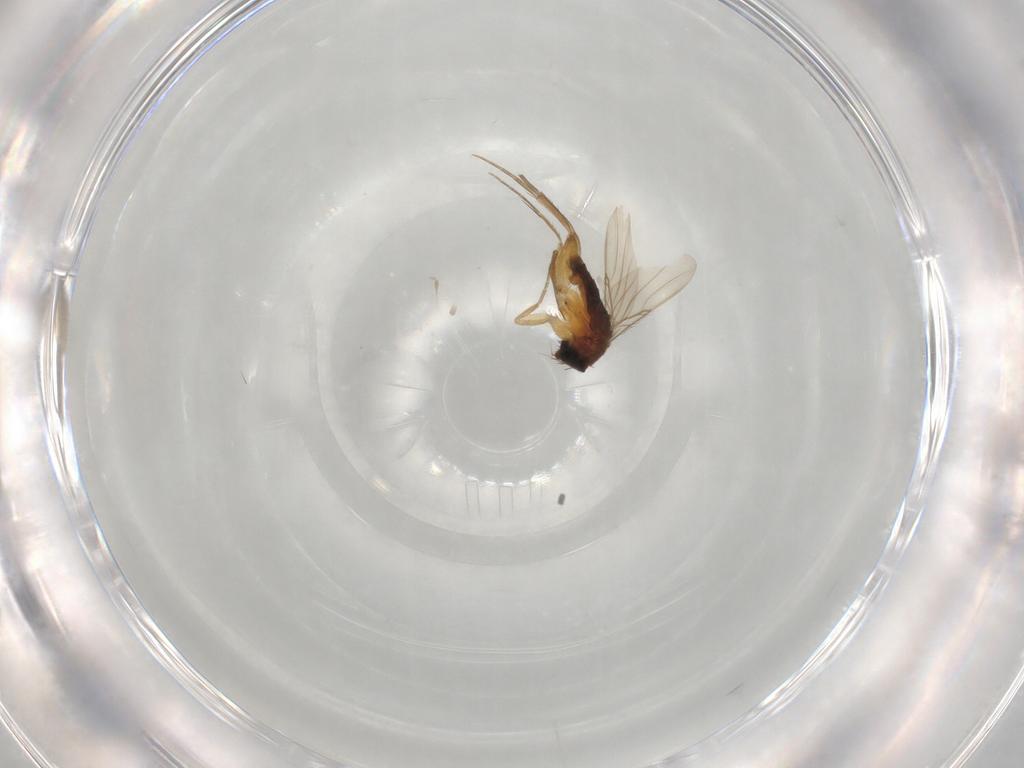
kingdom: Animalia
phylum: Arthropoda
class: Insecta
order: Diptera
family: Phoridae
